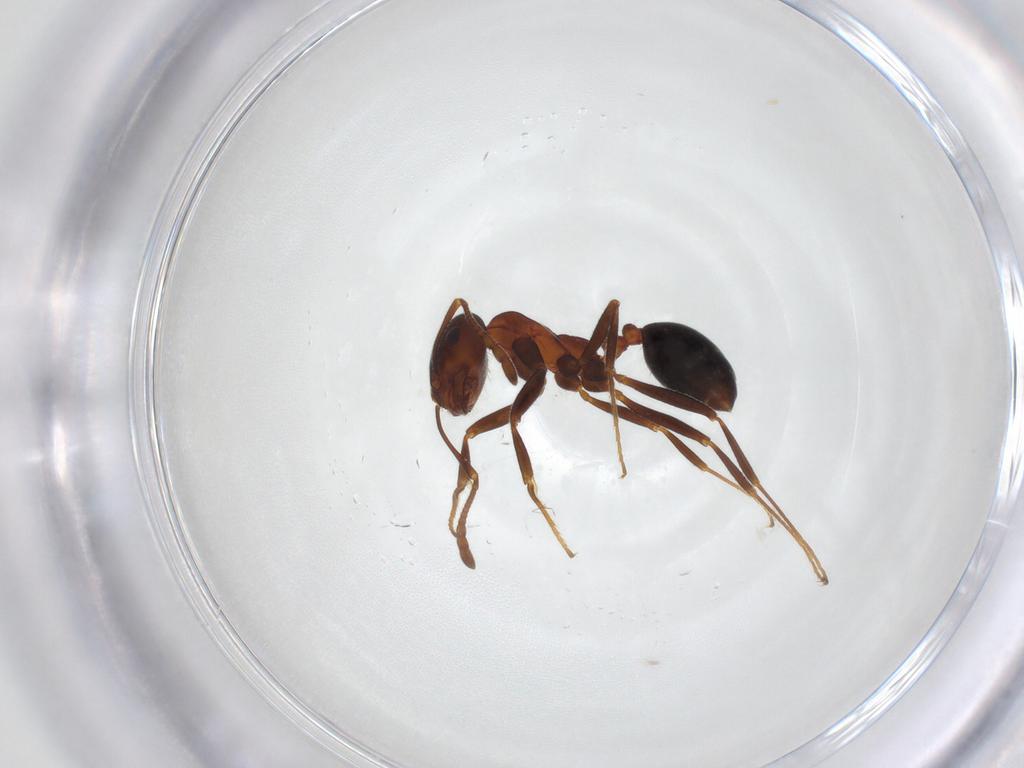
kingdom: Animalia
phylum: Arthropoda
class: Insecta
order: Hymenoptera
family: Formicidae
